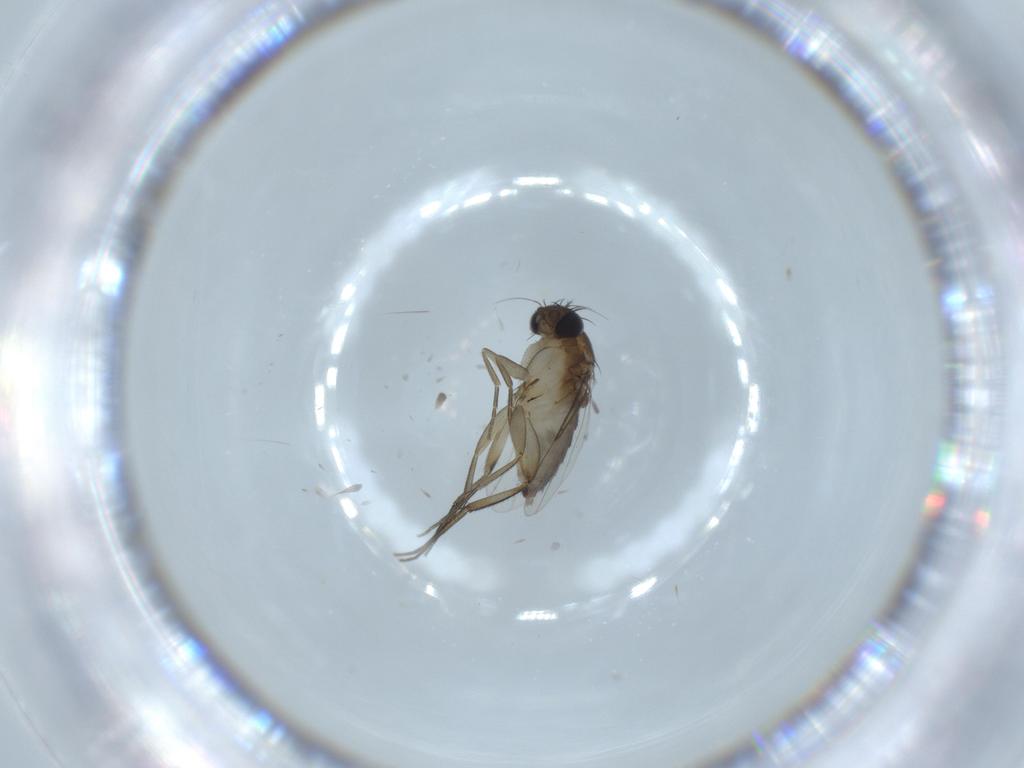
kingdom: Animalia
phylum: Arthropoda
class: Insecta
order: Diptera
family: Phoridae
